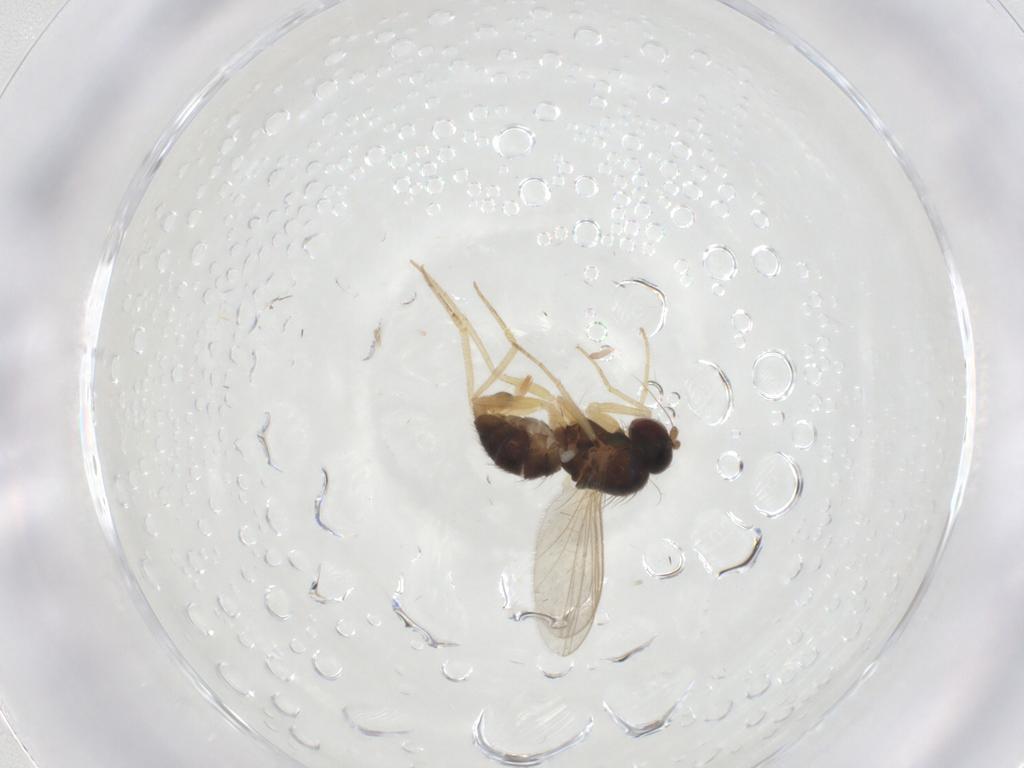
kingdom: Animalia
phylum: Arthropoda
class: Insecta
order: Diptera
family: Dolichopodidae
